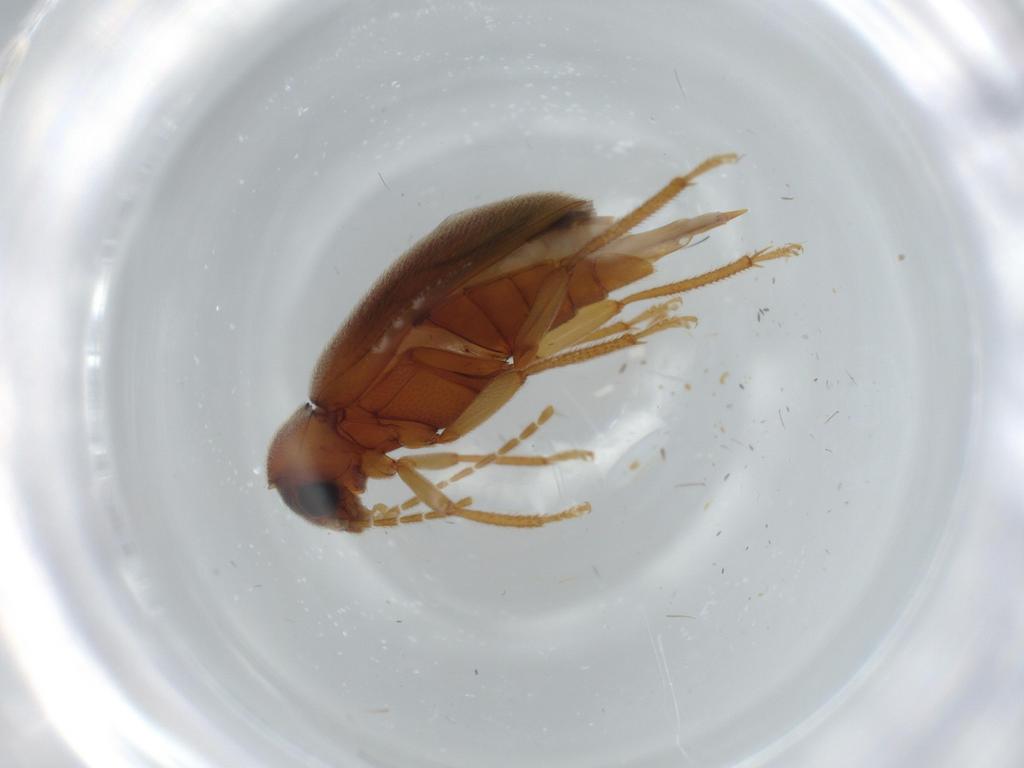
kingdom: Animalia
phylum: Arthropoda
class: Insecta
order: Coleoptera
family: Ptilodactylidae
